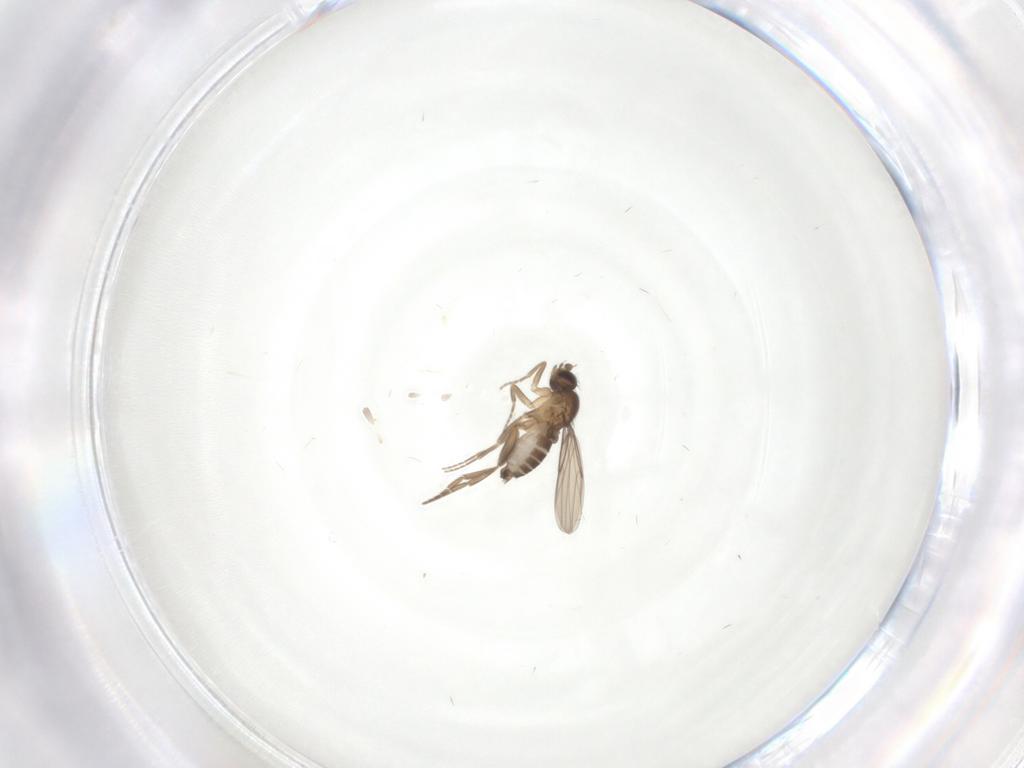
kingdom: Animalia
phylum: Arthropoda
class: Insecta
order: Diptera
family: Phoridae
